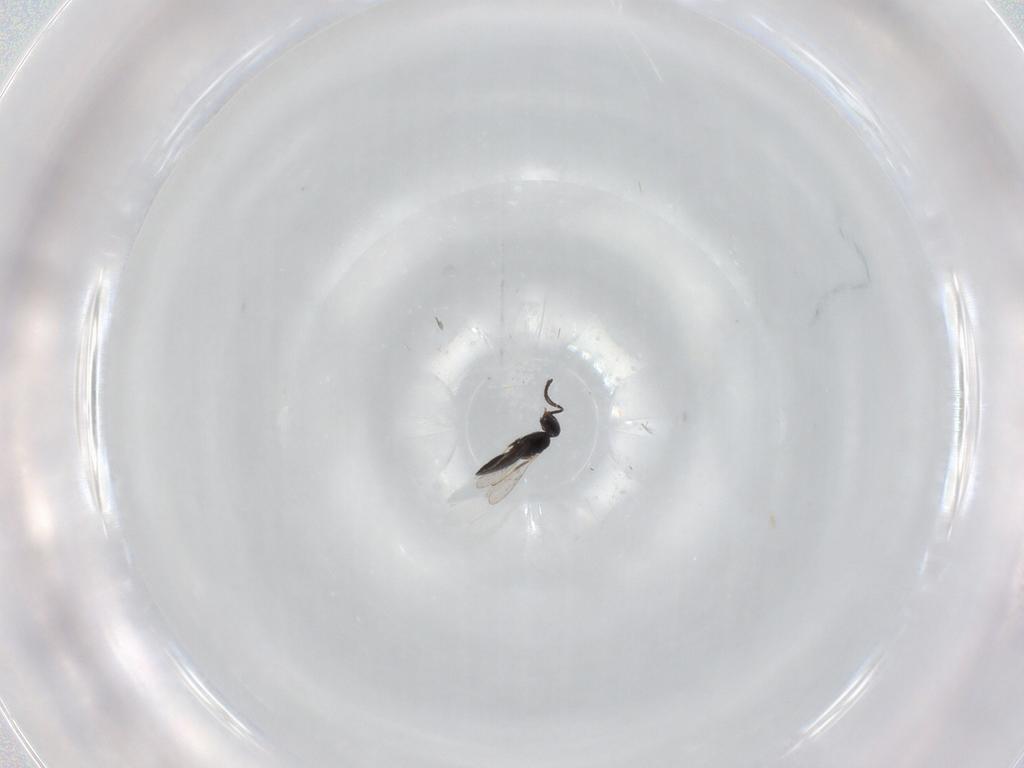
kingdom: Animalia
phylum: Arthropoda
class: Insecta
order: Hymenoptera
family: Scelionidae
